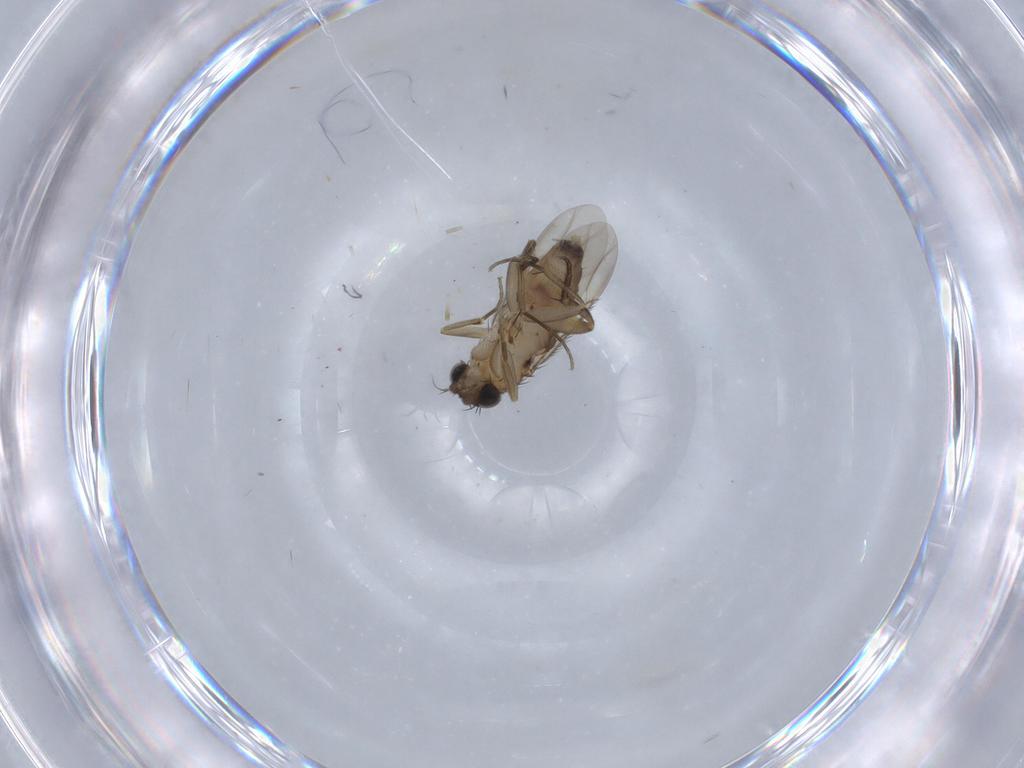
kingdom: Animalia
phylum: Arthropoda
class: Insecta
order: Diptera
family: Phoridae
